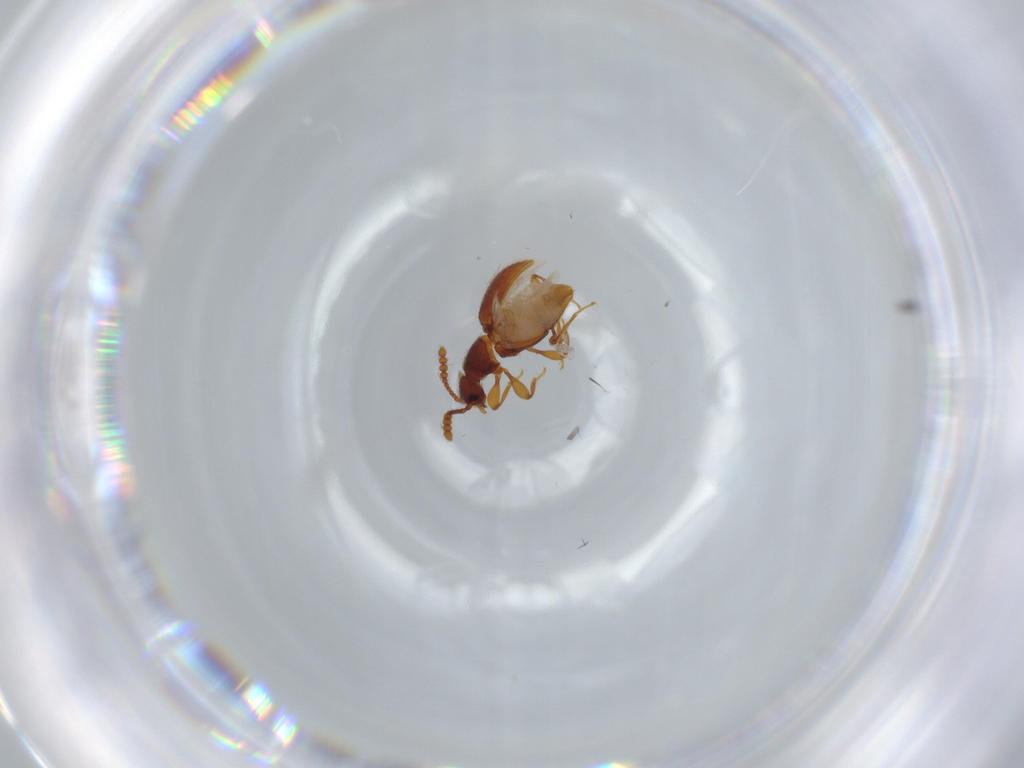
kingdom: Animalia
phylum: Arthropoda
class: Insecta
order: Coleoptera
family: Staphylinidae
